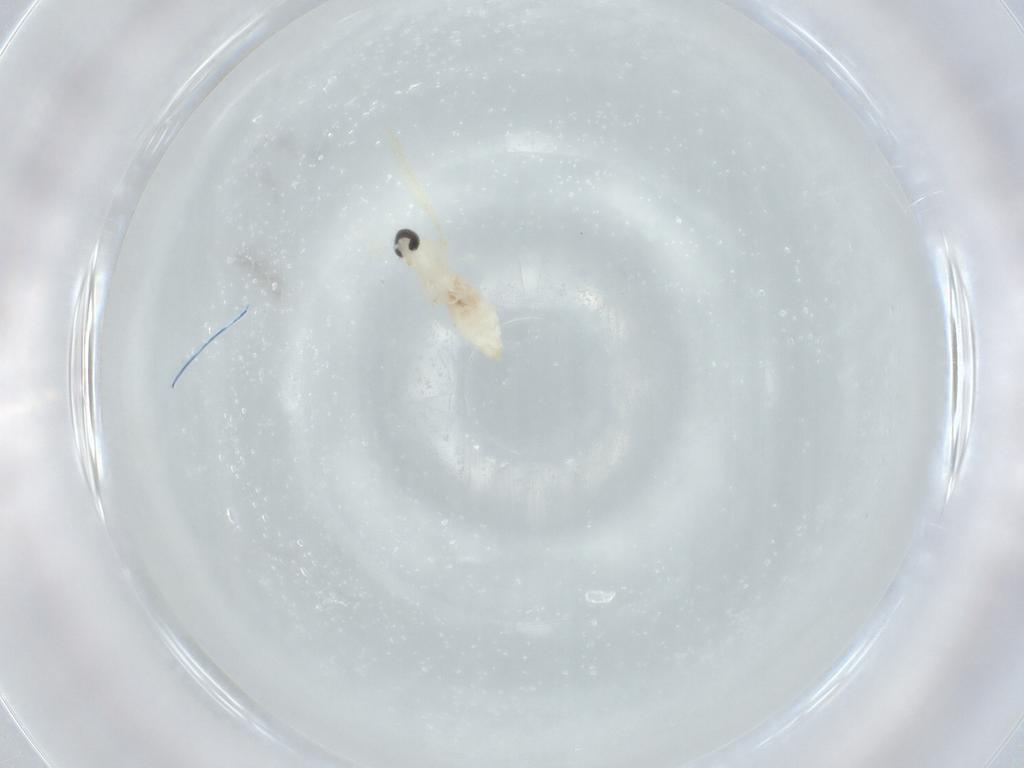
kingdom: Animalia
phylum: Arthropoda
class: Insecta
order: Diptera
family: Cecidomyiidae
